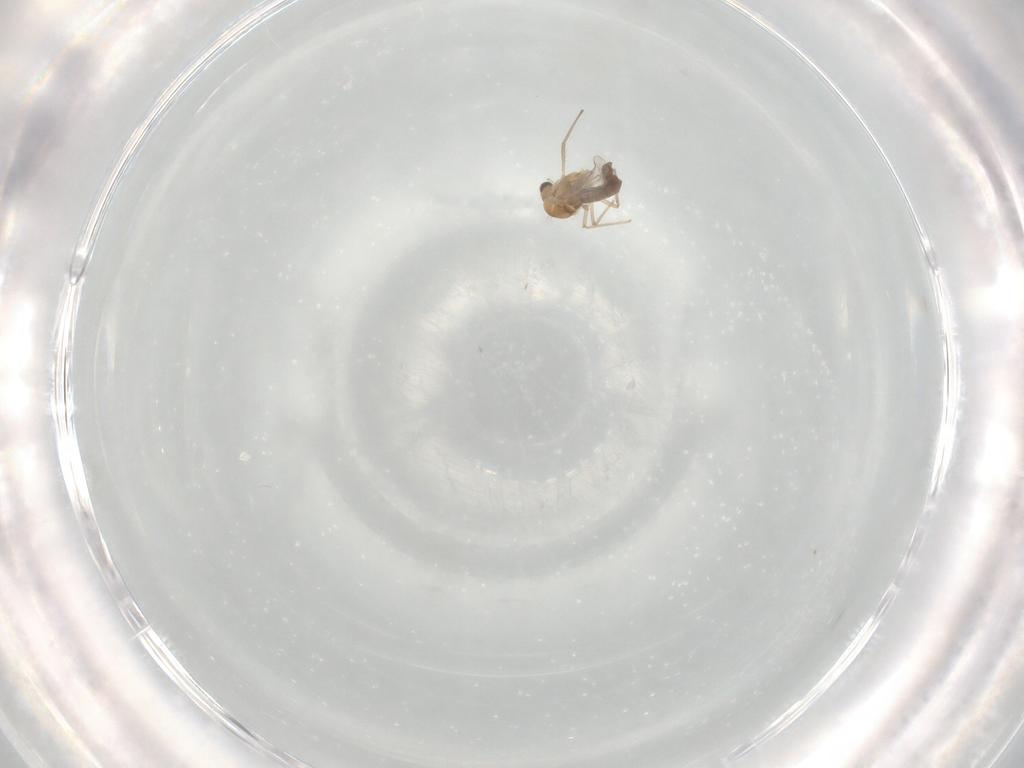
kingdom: Animalia
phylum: Arthropoda
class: Insecta
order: Diptera
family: Chironomidae
